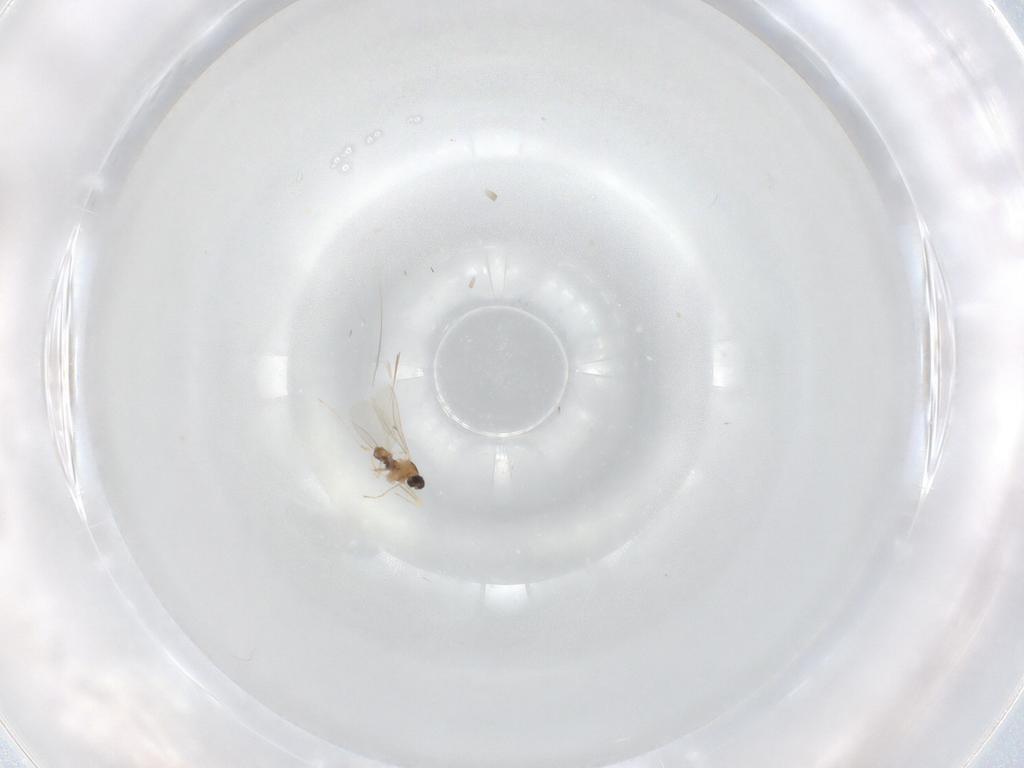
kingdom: Animalia
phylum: Arthropoda
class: Insecta
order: Diptera
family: Cecidomyiidae
